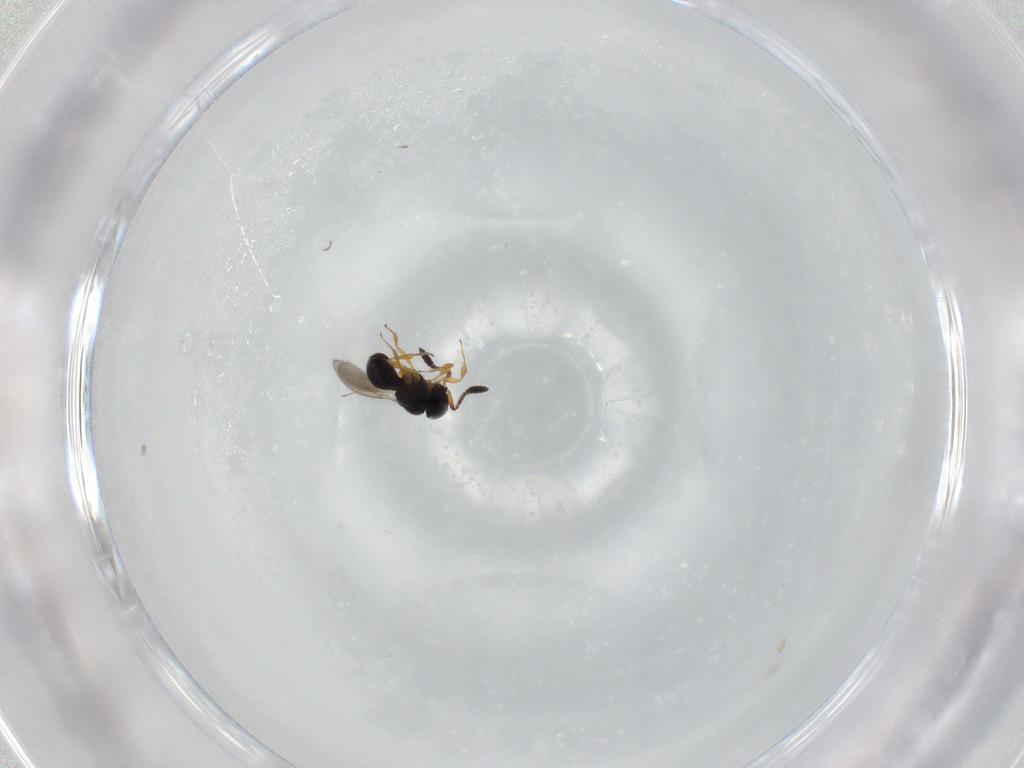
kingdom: Animalia
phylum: Arthropoda
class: Insecta
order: Hymenoptera
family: Scelionidae
